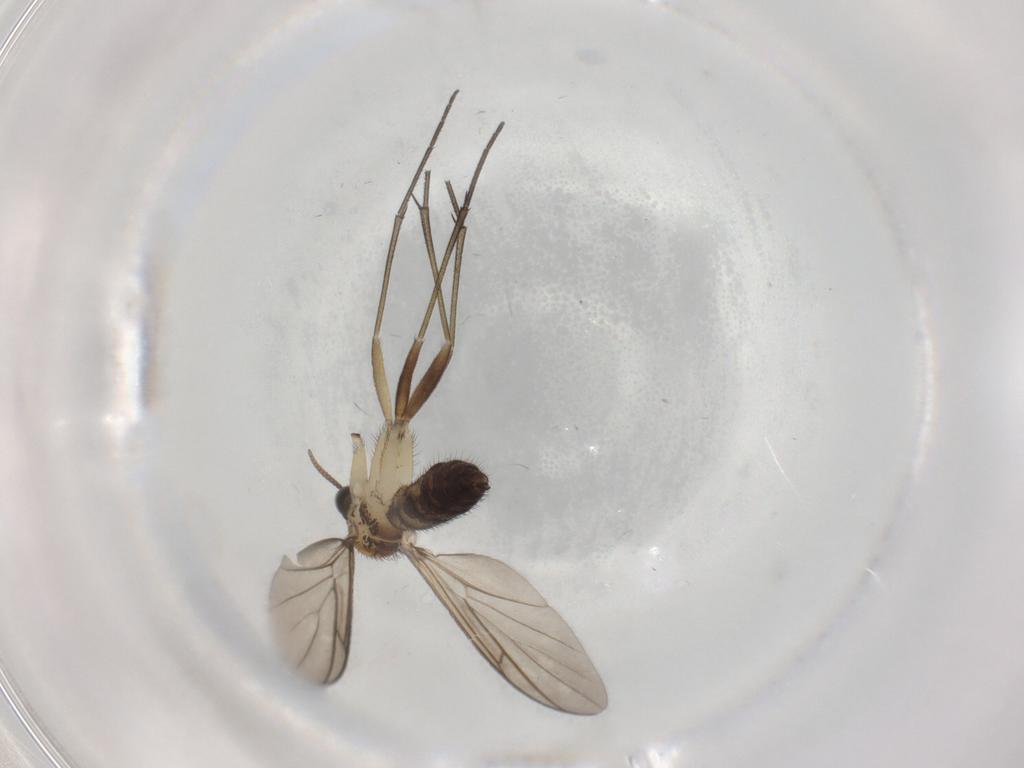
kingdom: Animalia
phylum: Arthropoda
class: Insecta
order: Diptera
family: Keroplatidae
